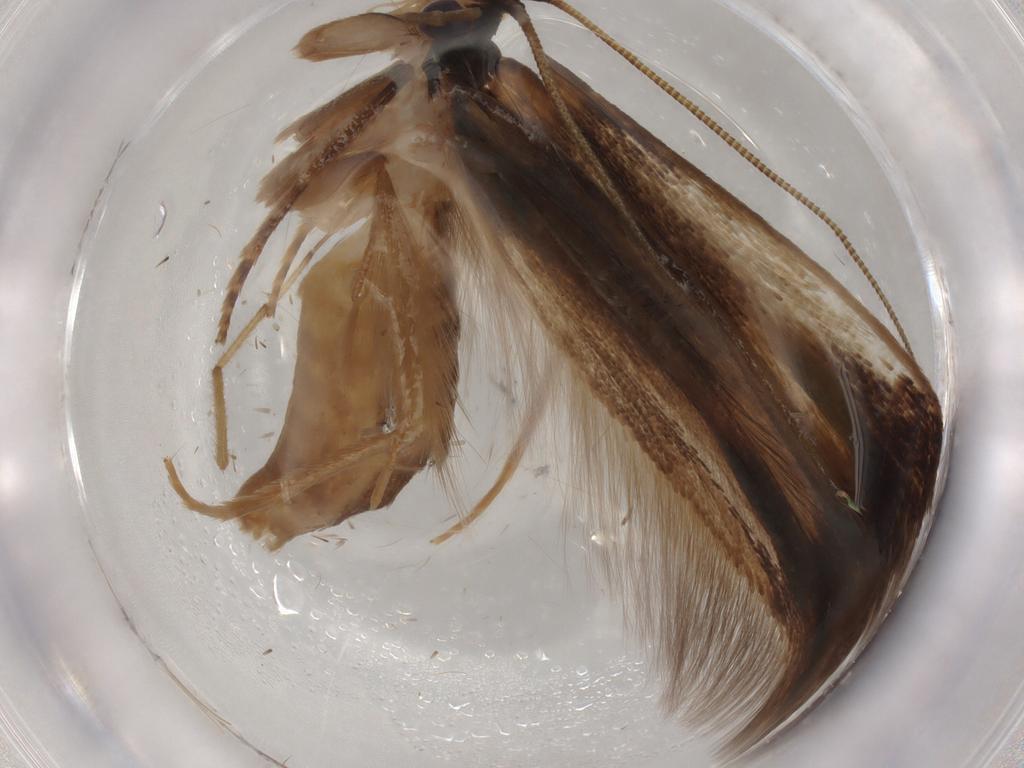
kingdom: Animalia
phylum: Arthropoda
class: Insecta
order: Lepidoptera
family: Tineidae
